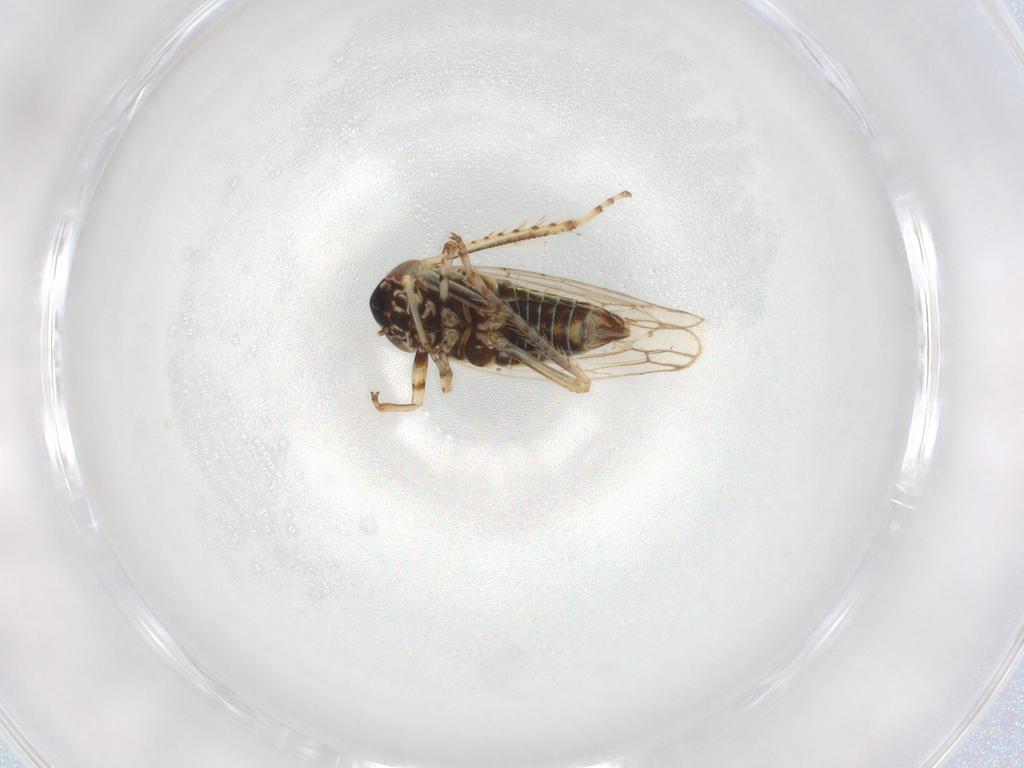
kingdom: Animalia
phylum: Arthropoda
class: Insecta
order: Hemiptera
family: Cicadellidae
